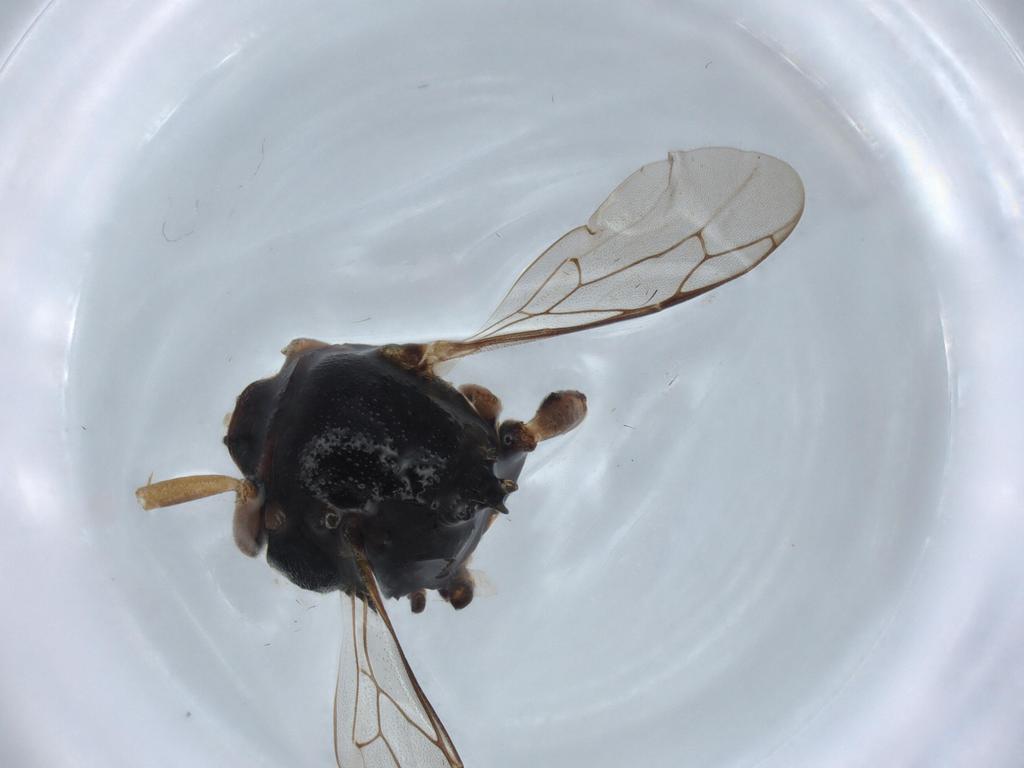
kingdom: Animalia
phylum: Arthropoda
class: Insecta
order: Hymenoptera
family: Crabronidae
